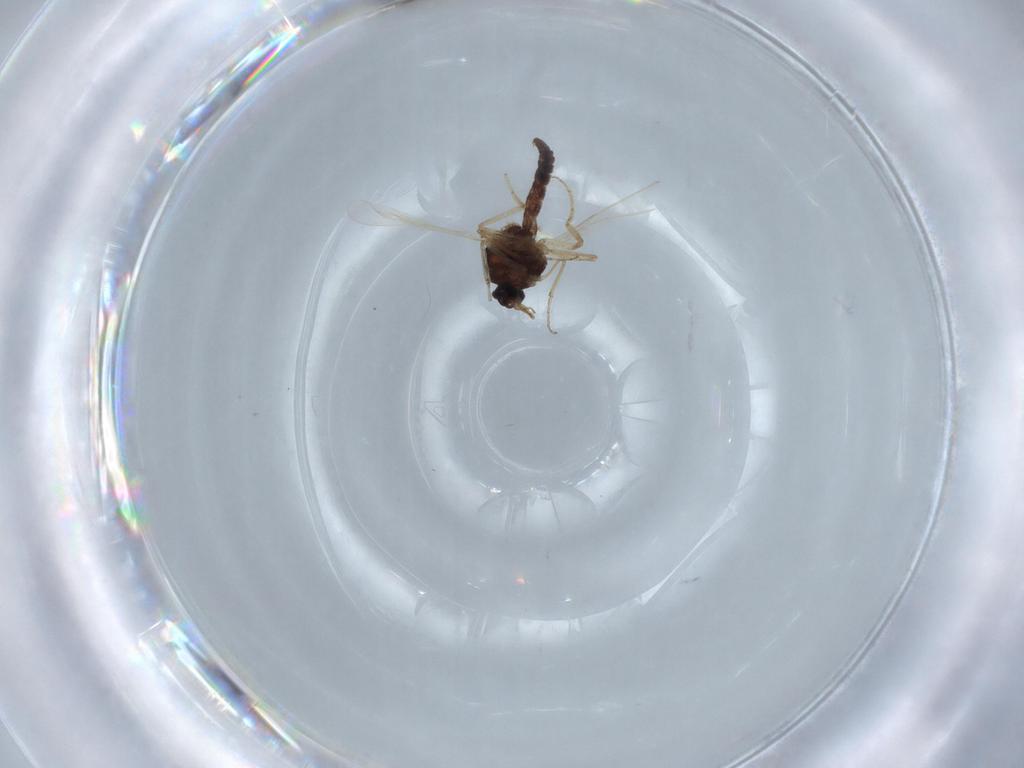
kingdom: Animalia
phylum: Arthropoda
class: Insecta
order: Diptera
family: Ceratopogonidae
